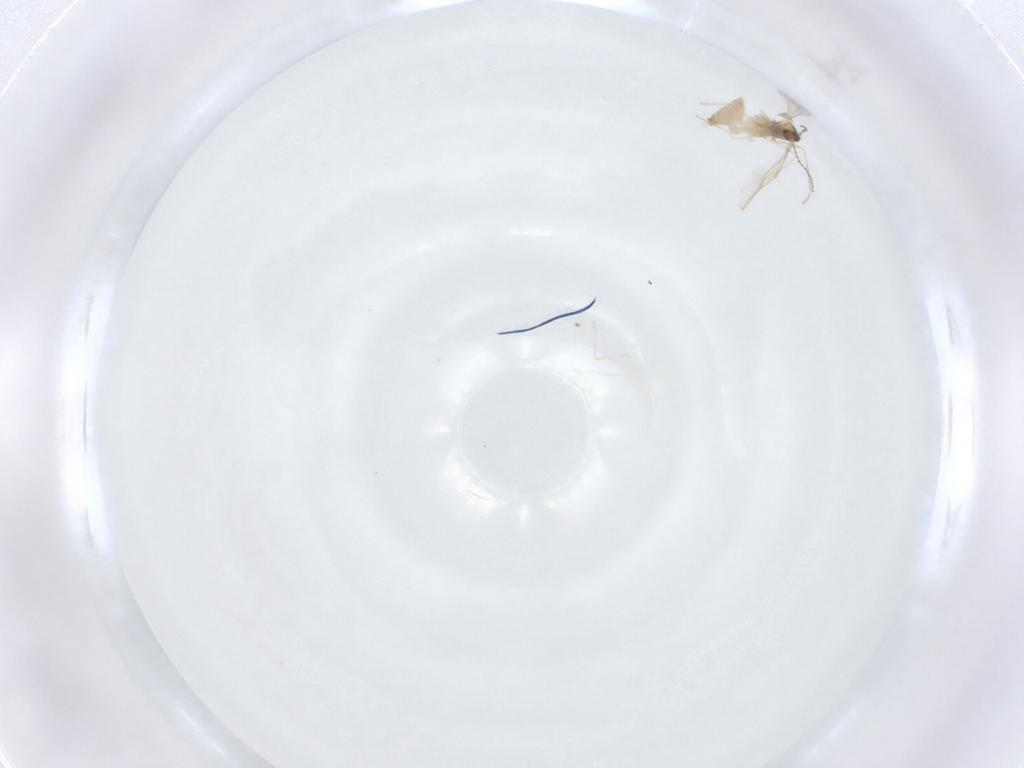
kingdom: Animalia
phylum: Arthropoda
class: Insecta
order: Diptera
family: Cecidomyiidae
